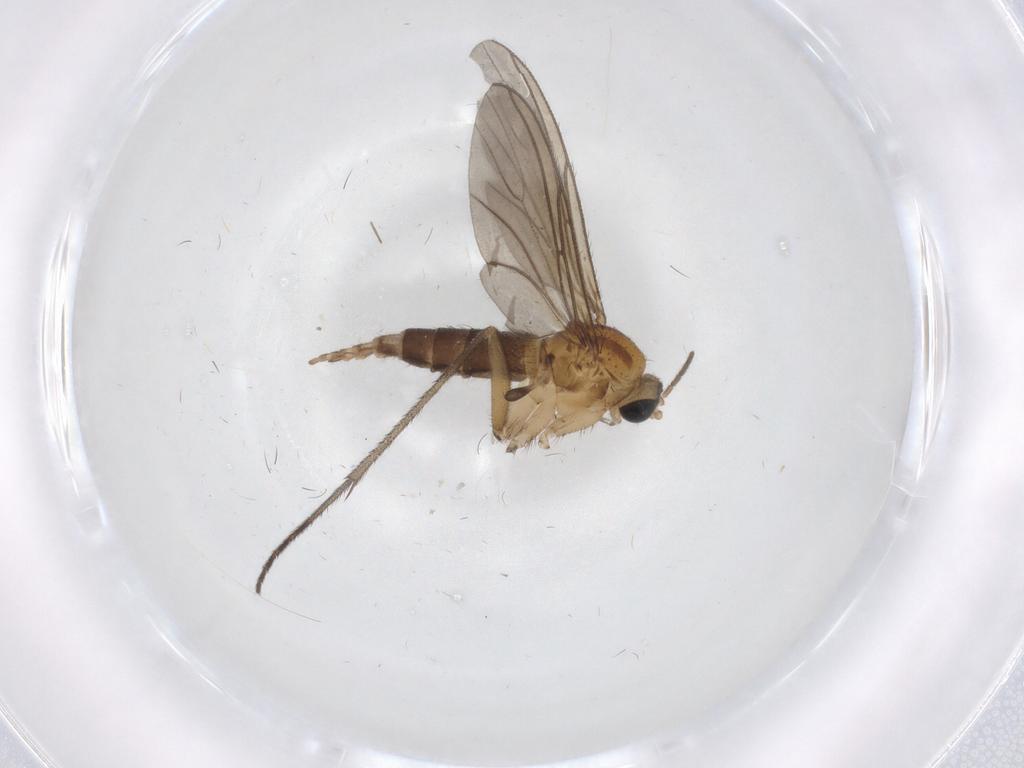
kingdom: Animalia
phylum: Arthropoda
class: Insecta
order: Diptera
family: Sciaridae
